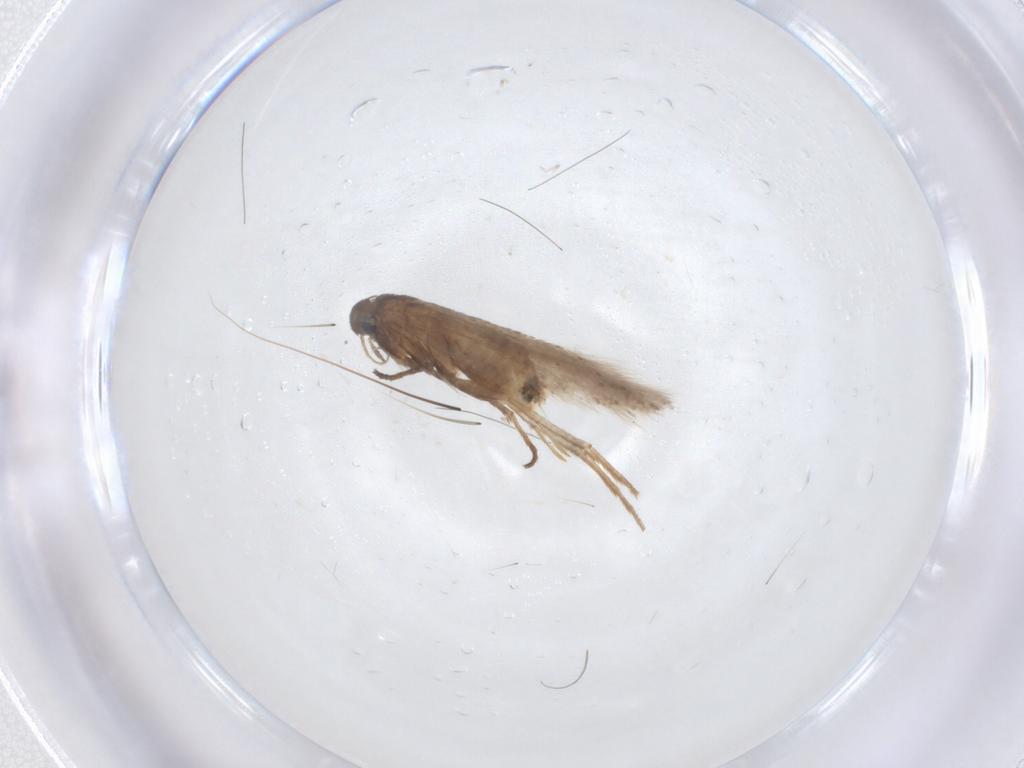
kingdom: Animalia
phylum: Arthropoda
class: Insecta
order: Lepidoptera
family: Gelechiidae
